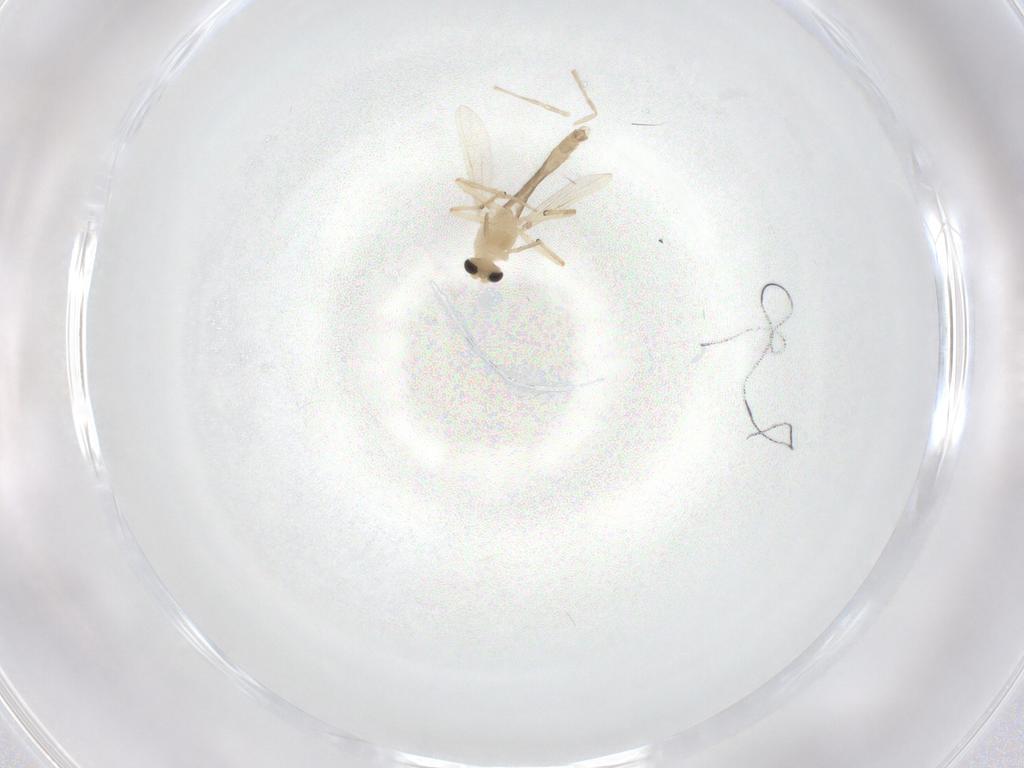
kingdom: Animalia
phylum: Arthropoda
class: Insecta
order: Diptera
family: Chironomidae
